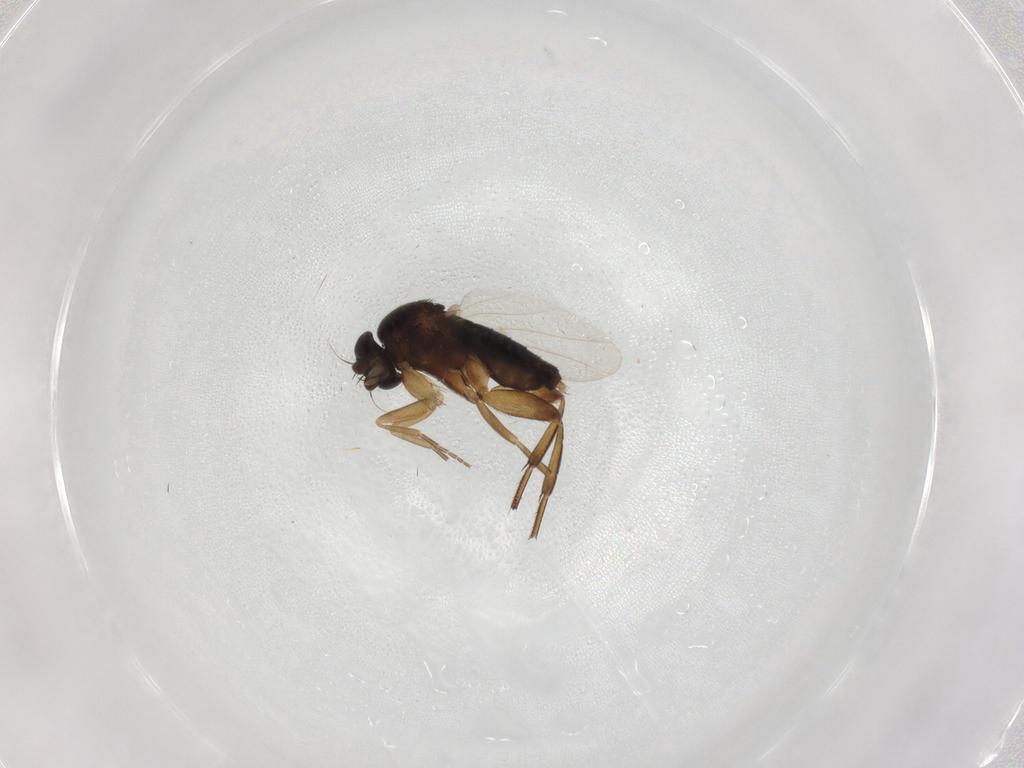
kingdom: Animalia
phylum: Arthropoda
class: Insecta
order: Diptera
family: Phoridae
